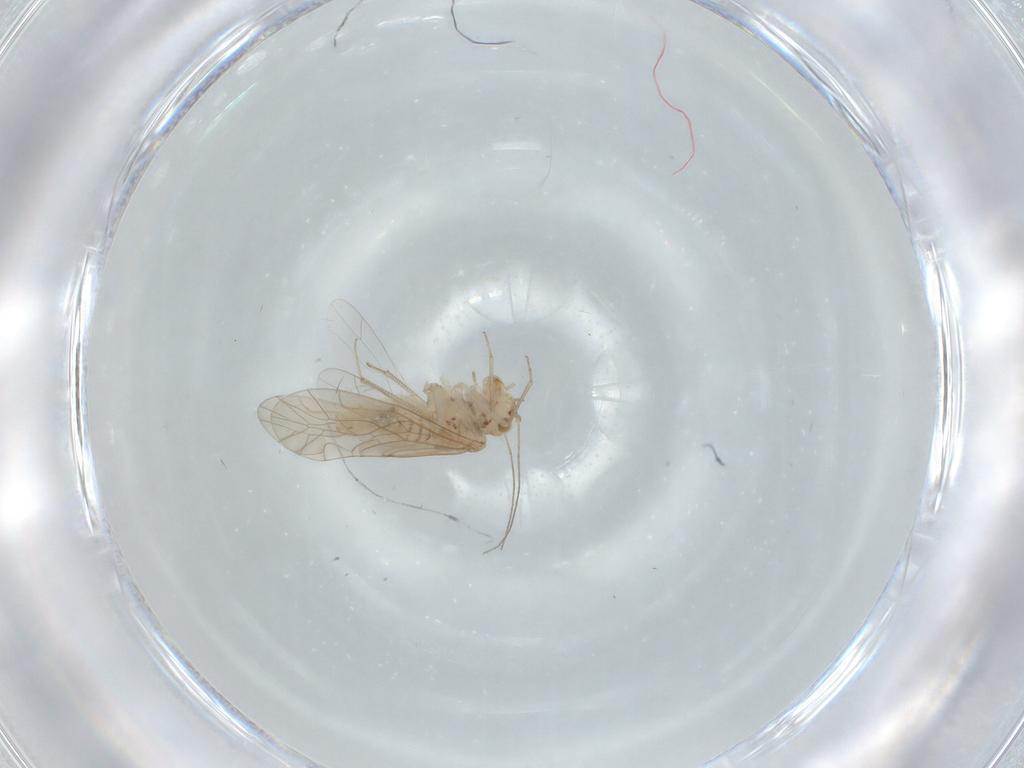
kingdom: Animalia
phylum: Arthropoda
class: Insecta
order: Psocodea
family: Lachesillidae
